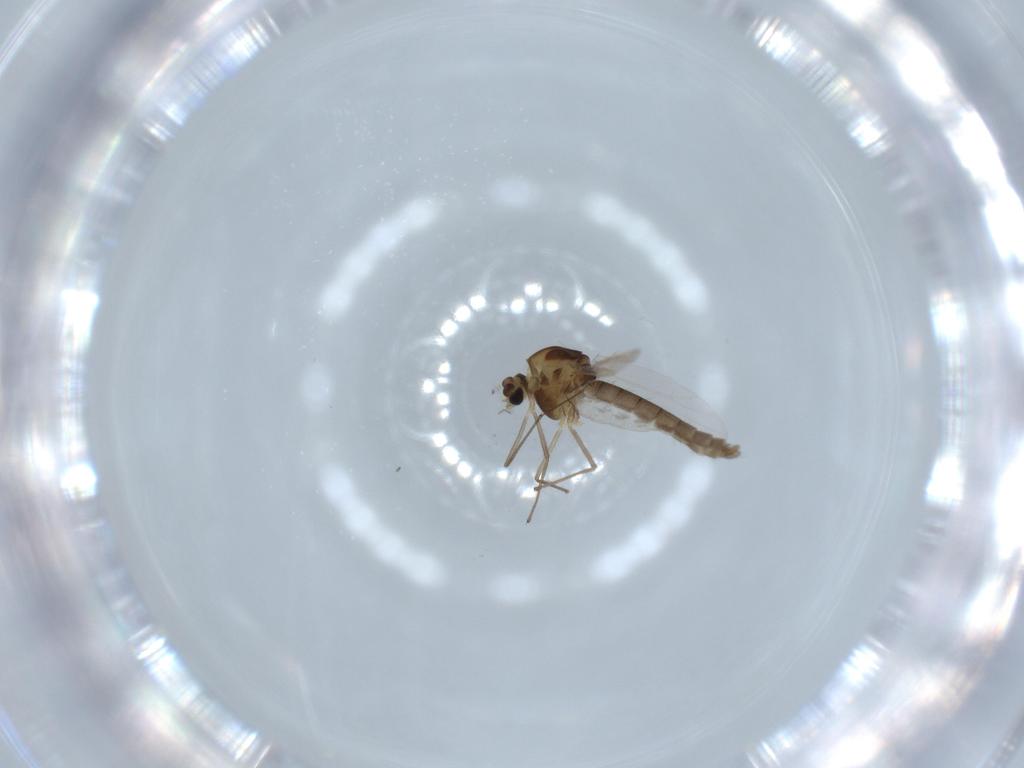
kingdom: Animalia
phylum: Arthropoda
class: Insecta
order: Diptera
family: Chironomidae
